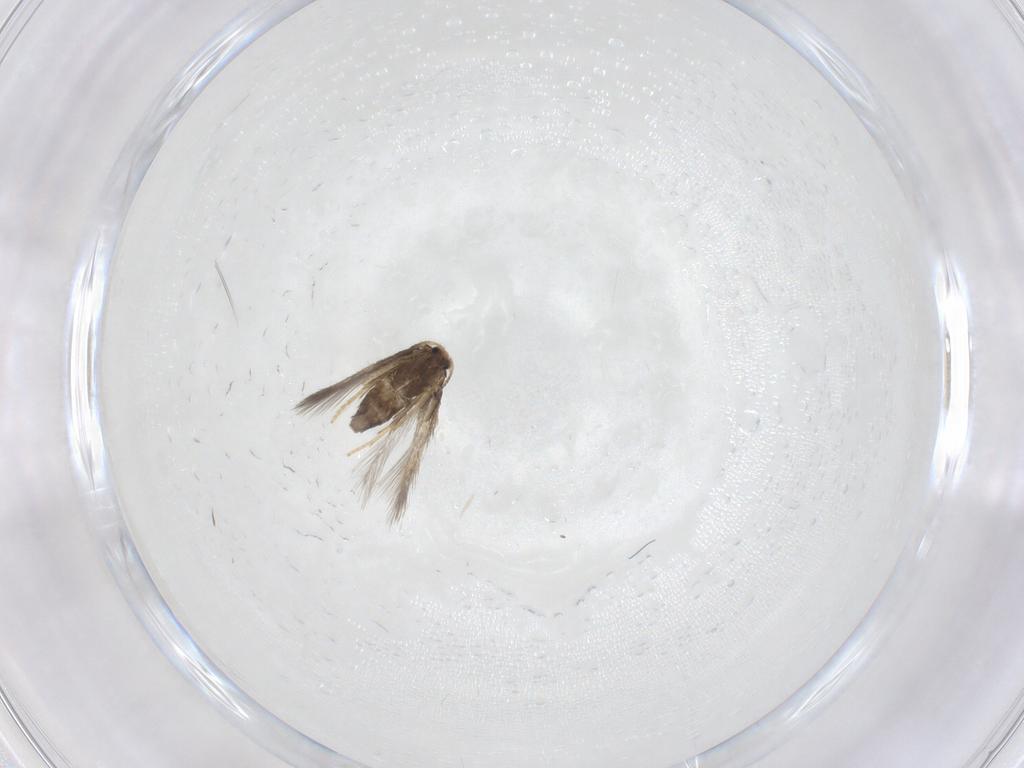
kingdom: Animalia
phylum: Arthropoda
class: Insecta
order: Lepidoptera
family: Nepticulidae
